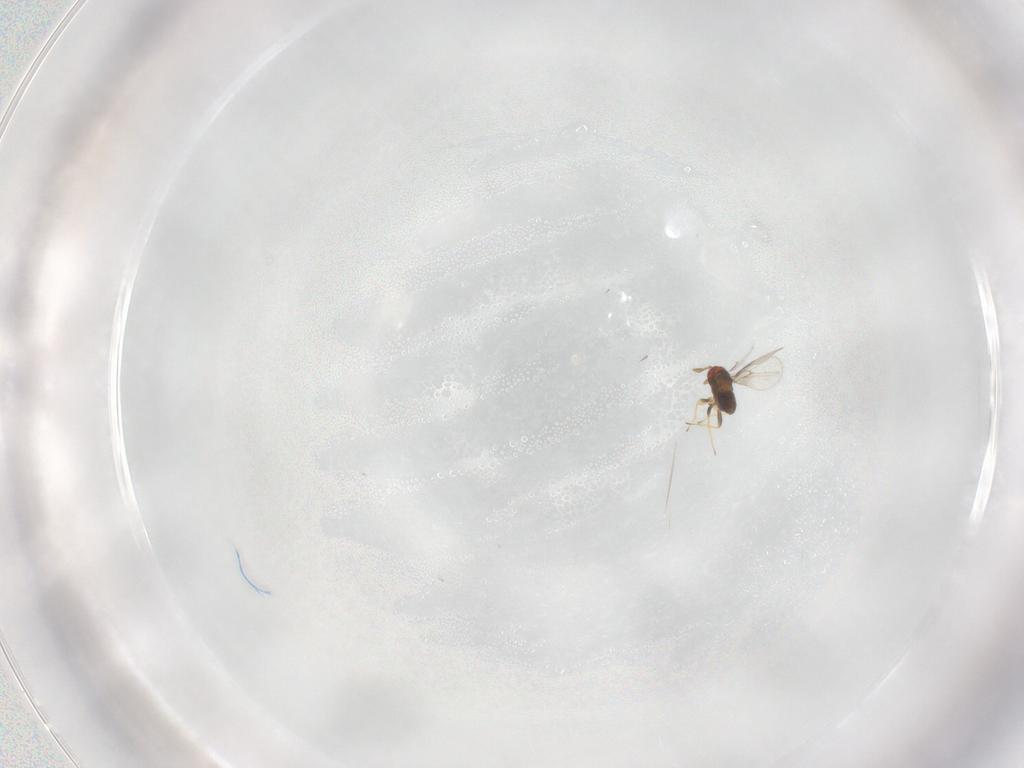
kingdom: Animalia
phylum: Arthropoda
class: Insecta
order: Hymenoptera
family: Trichogrammatidae
